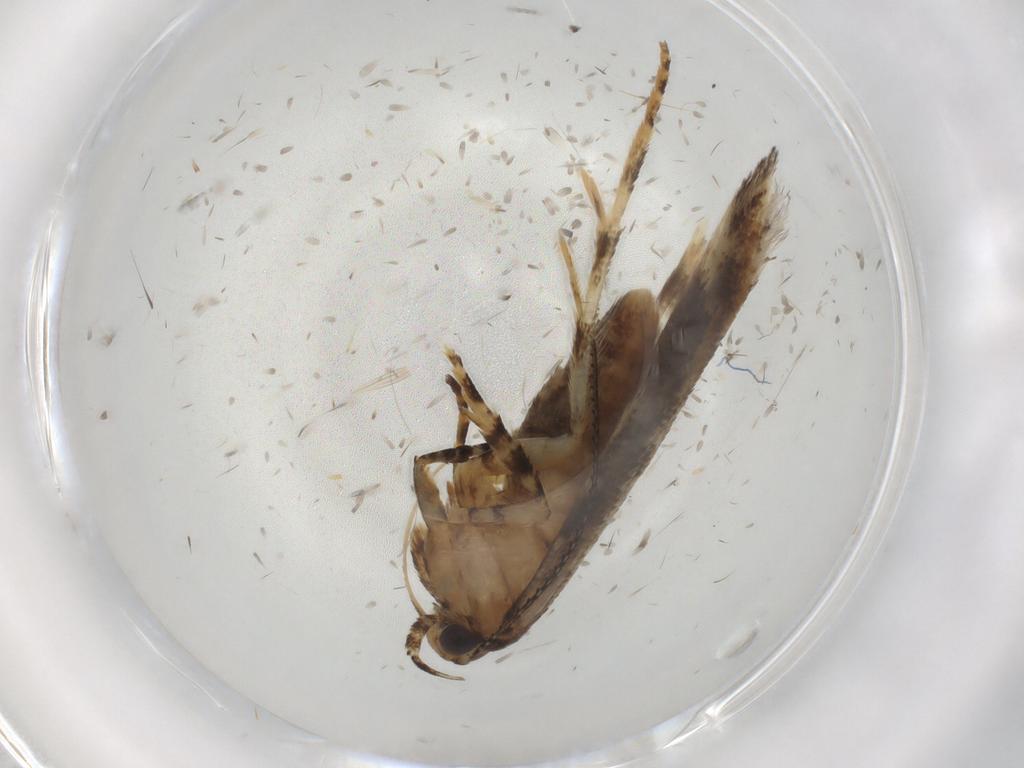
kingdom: Animalia
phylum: Arthropoda
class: Insecta
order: Lepidoptera
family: Gelechiidae
